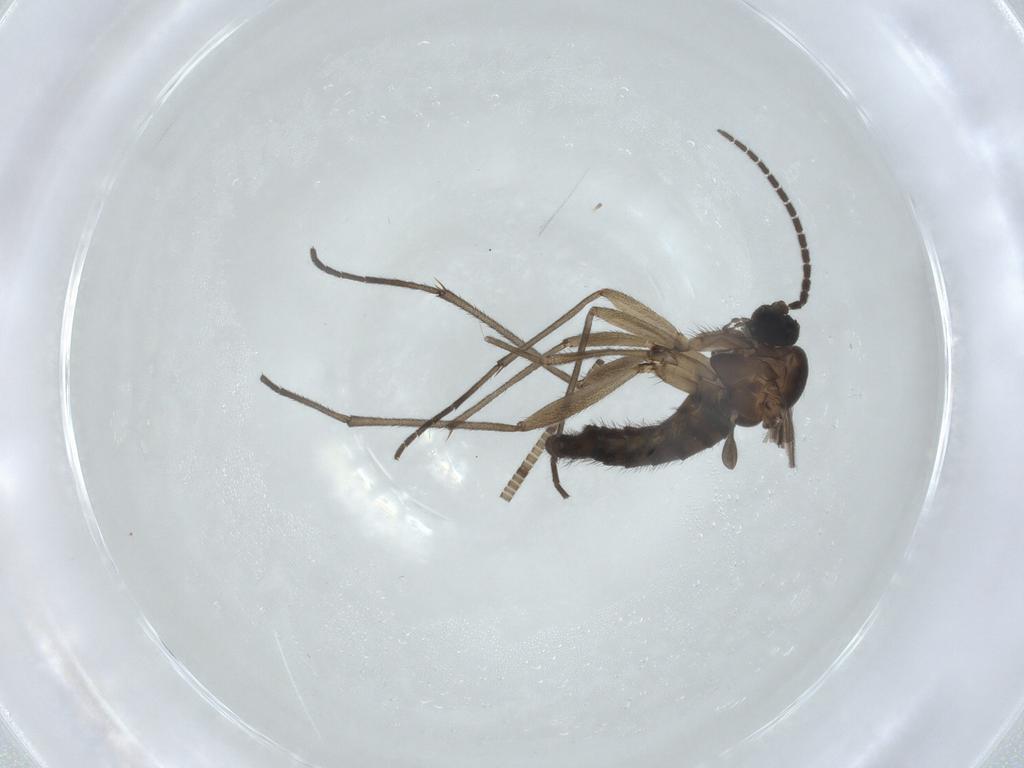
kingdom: Animalia
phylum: Arthropoda
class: Insecta
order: Diptera
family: Sciaridae
